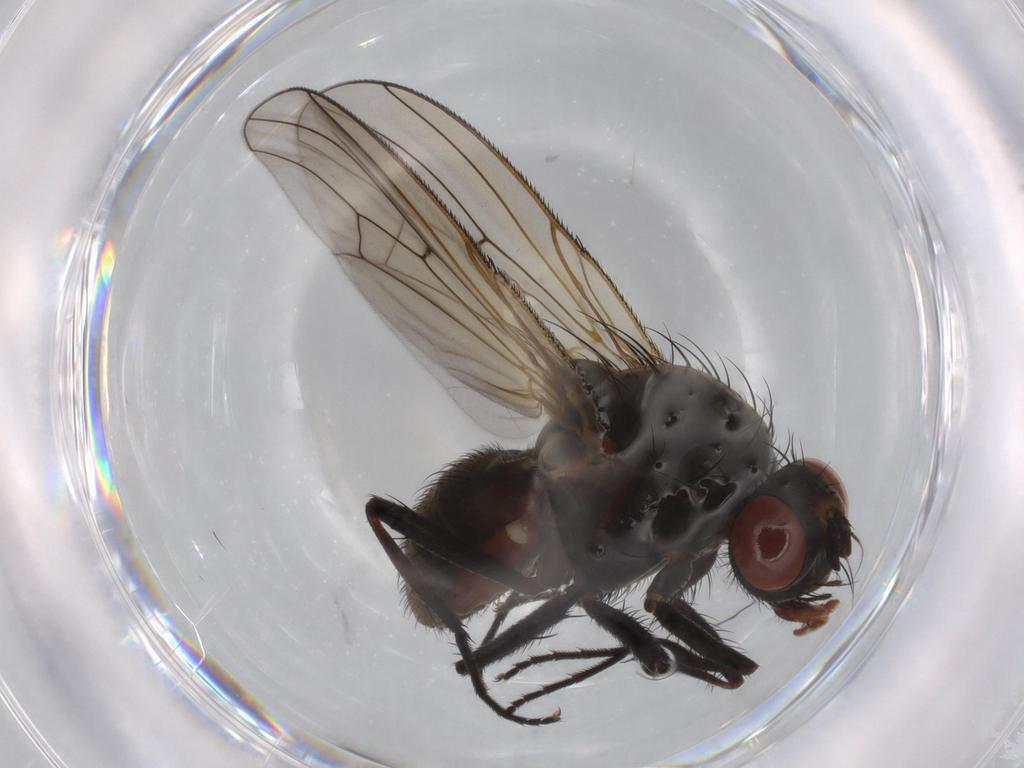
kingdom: Animalia
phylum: Arthropoda
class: Insecta
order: Diptera
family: Anthomyiidae
